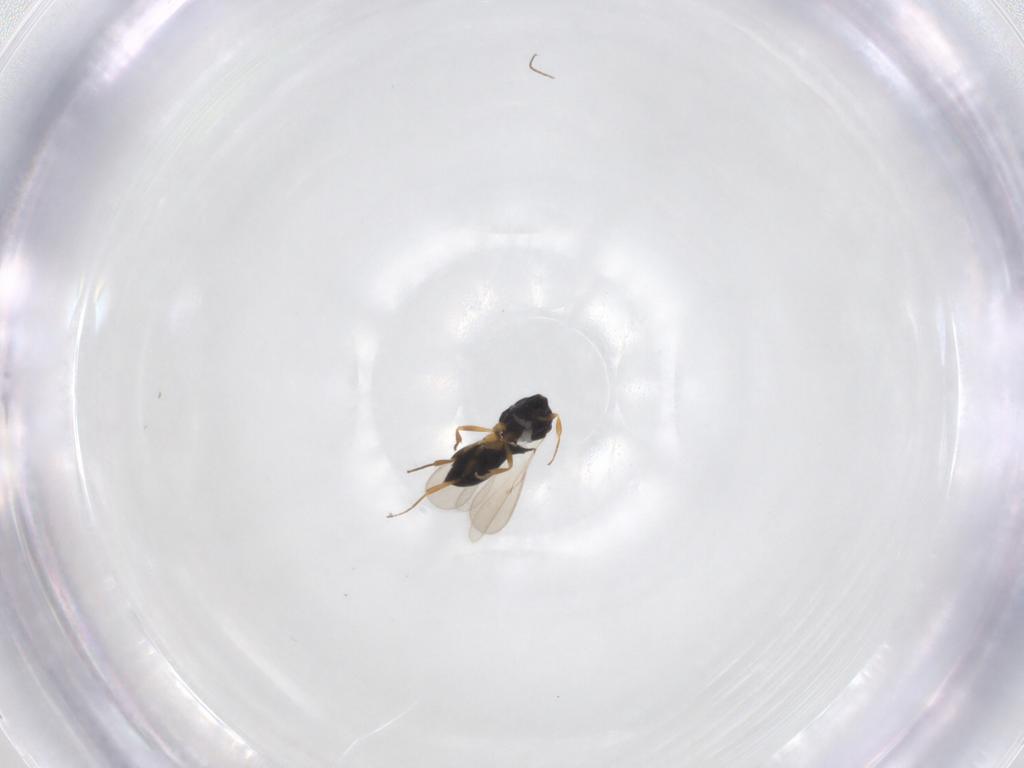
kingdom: Animalia
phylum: Arthropoda
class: Insecta
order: Hymenoptera
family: Scelionidae
